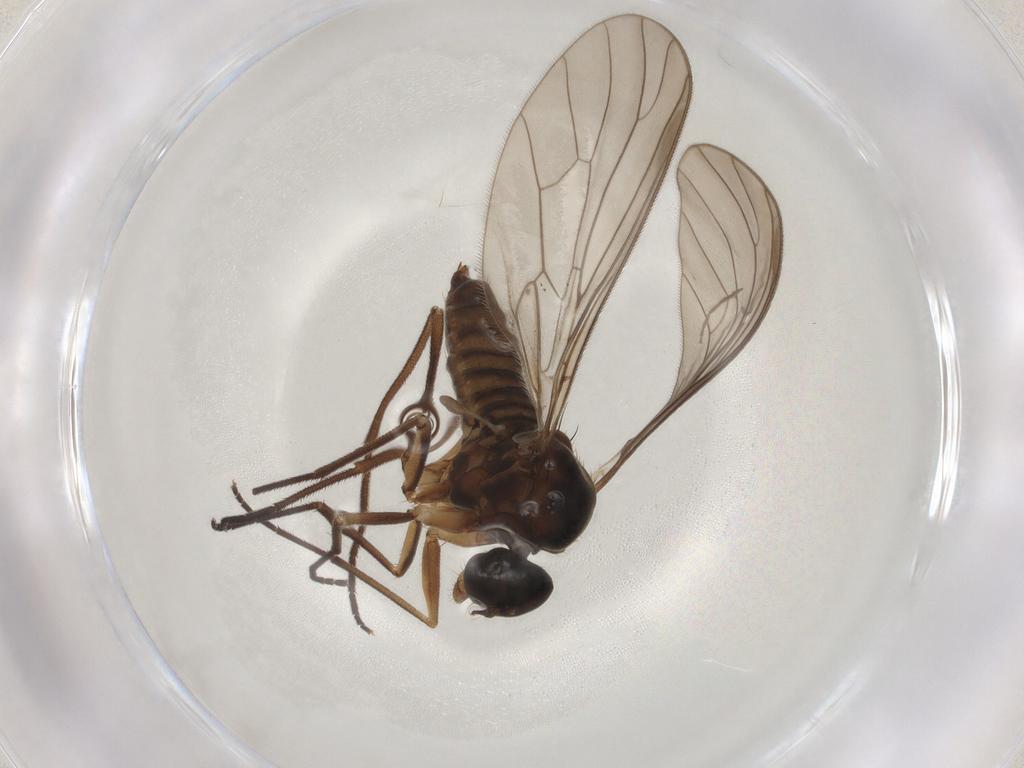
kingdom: Animalia
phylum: Arthropoda
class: Insecta
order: Diptera
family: Hybotidae
